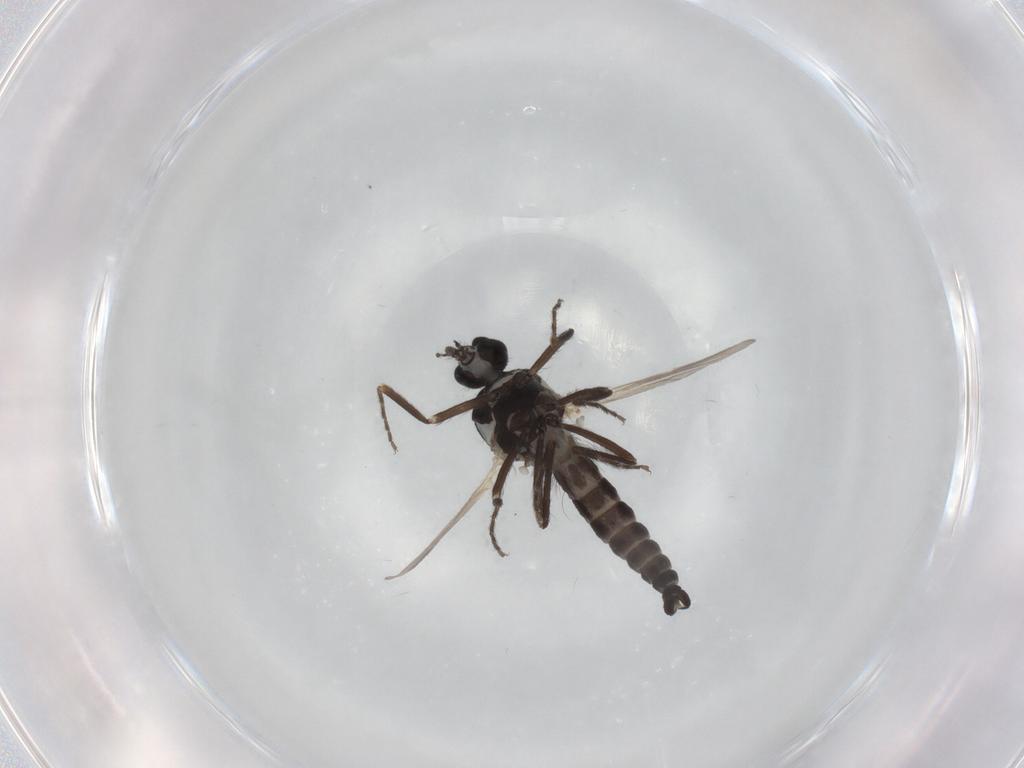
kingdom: Animalia
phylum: Arthropoda
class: Insecta
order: Diptera
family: Ceratopogonidae
